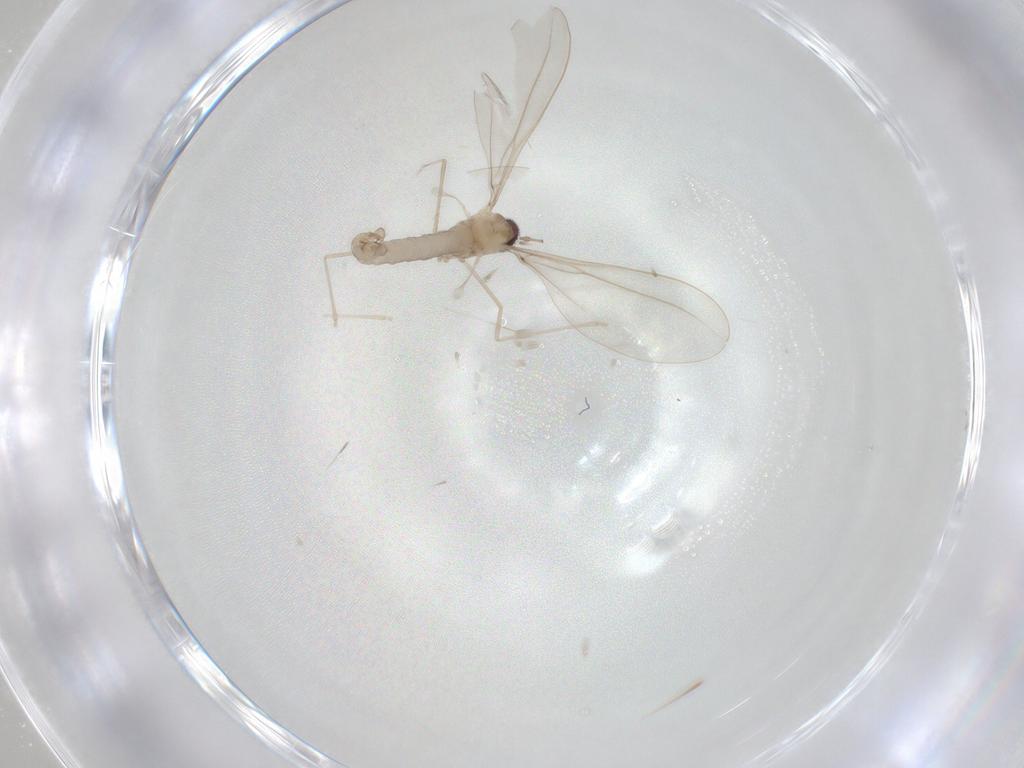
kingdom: Animalia
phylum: Arthropoda
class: Insecta
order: Diptera
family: Cecidomyiidae
